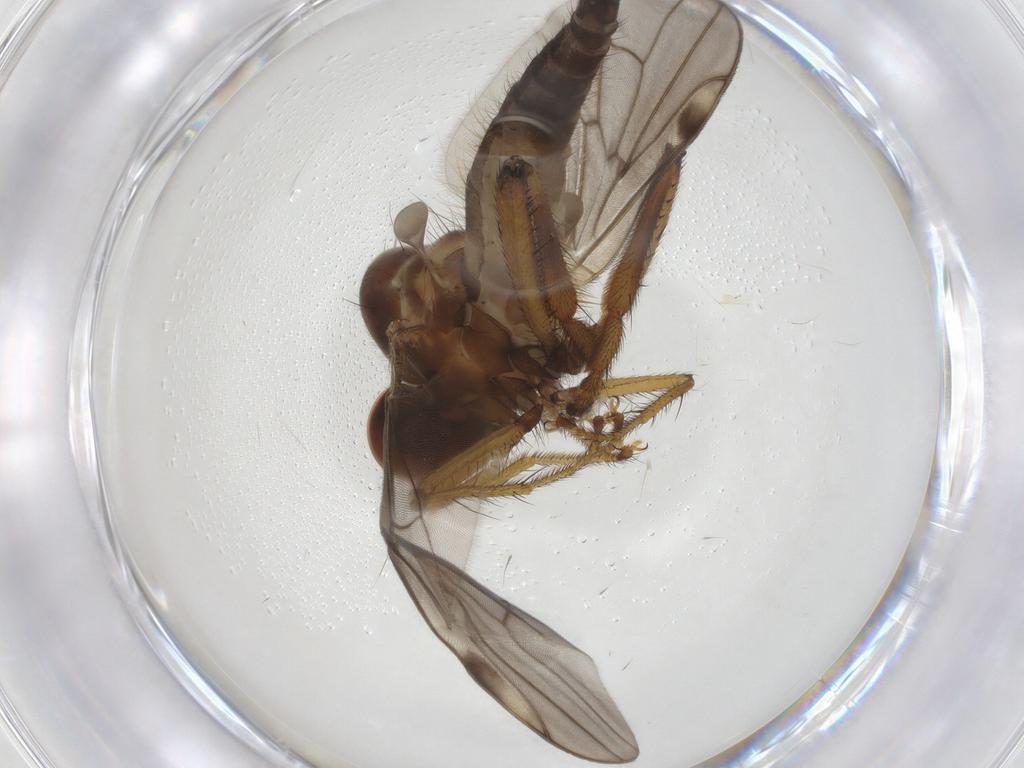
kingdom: Animalia
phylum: Arthropoda
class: Insecta
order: Diptera
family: Hybotidae
